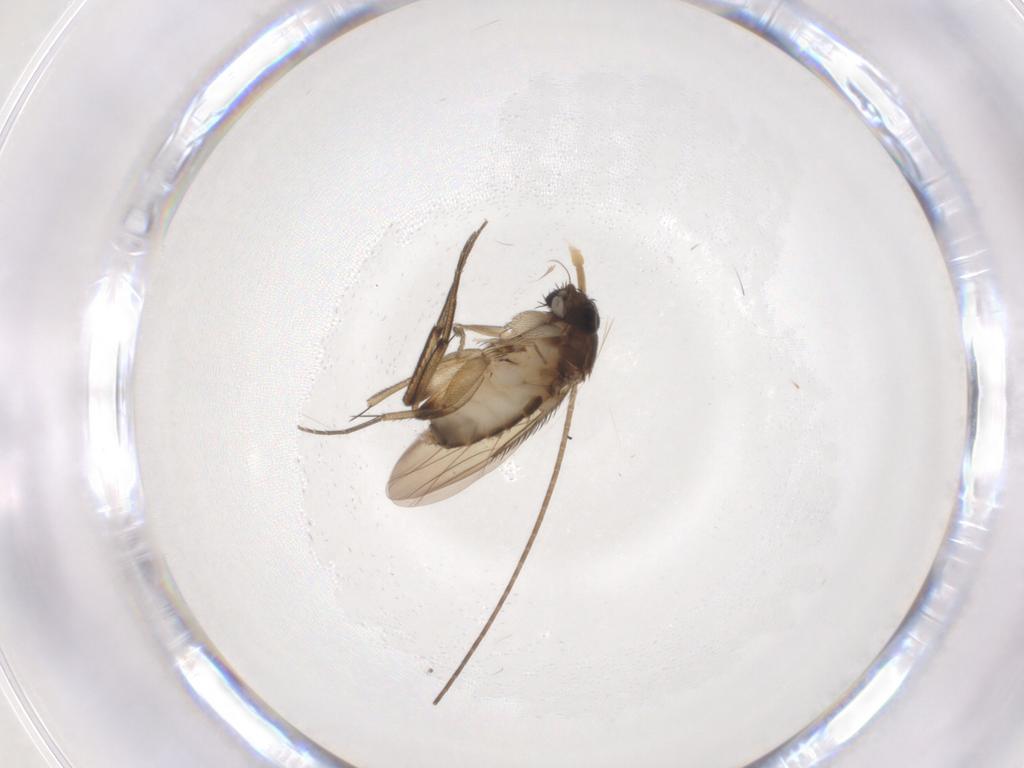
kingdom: Animalia
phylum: Arthropoda
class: Insecta
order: Diptera
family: Phoridae
